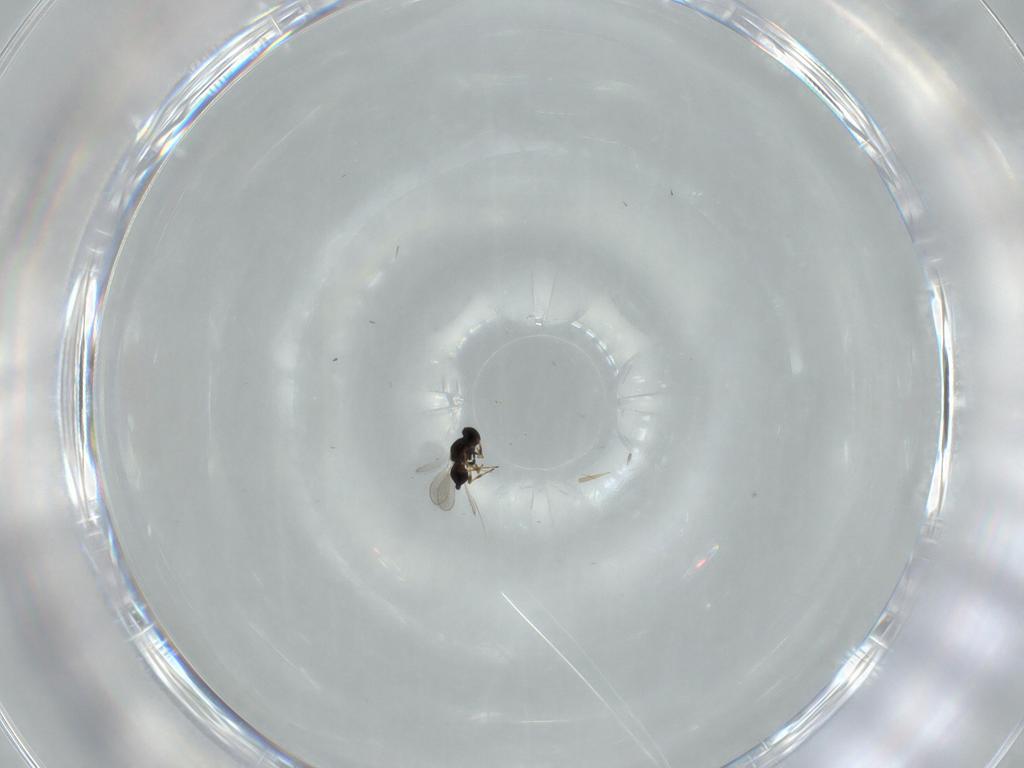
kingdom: Animalia
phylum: Arthropoda
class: Insecta
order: Hymenoptera
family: Platygastridae
